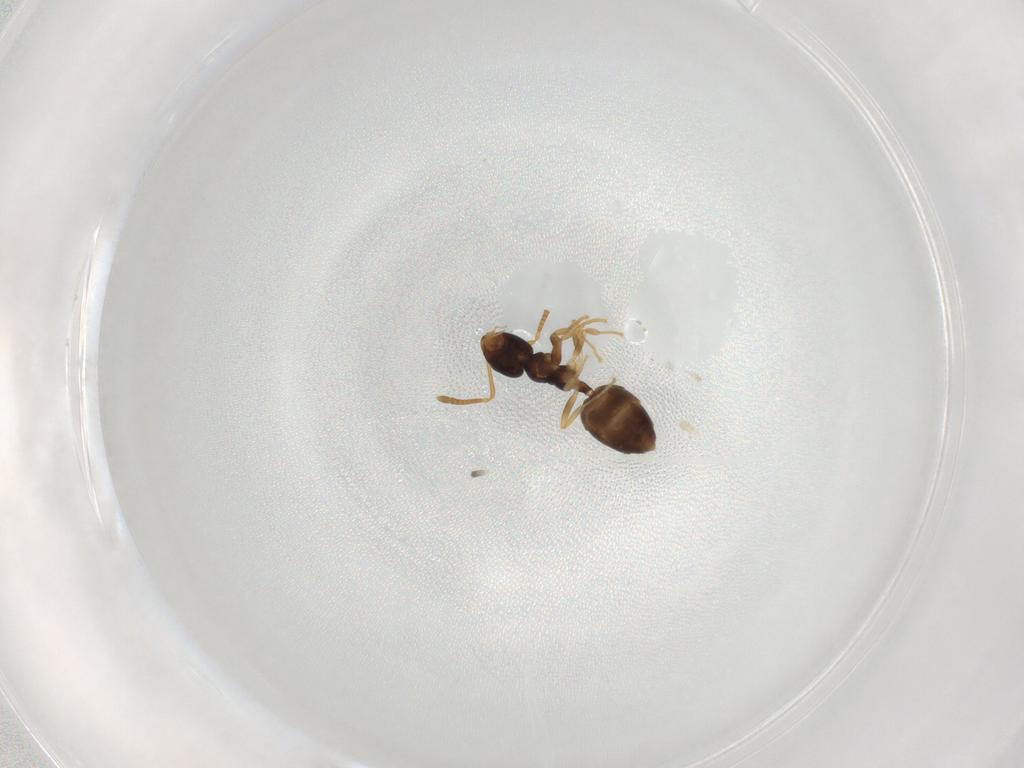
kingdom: Animalia
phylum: Arthropoda
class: Insecta
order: Hymenoptera
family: Formicidae
